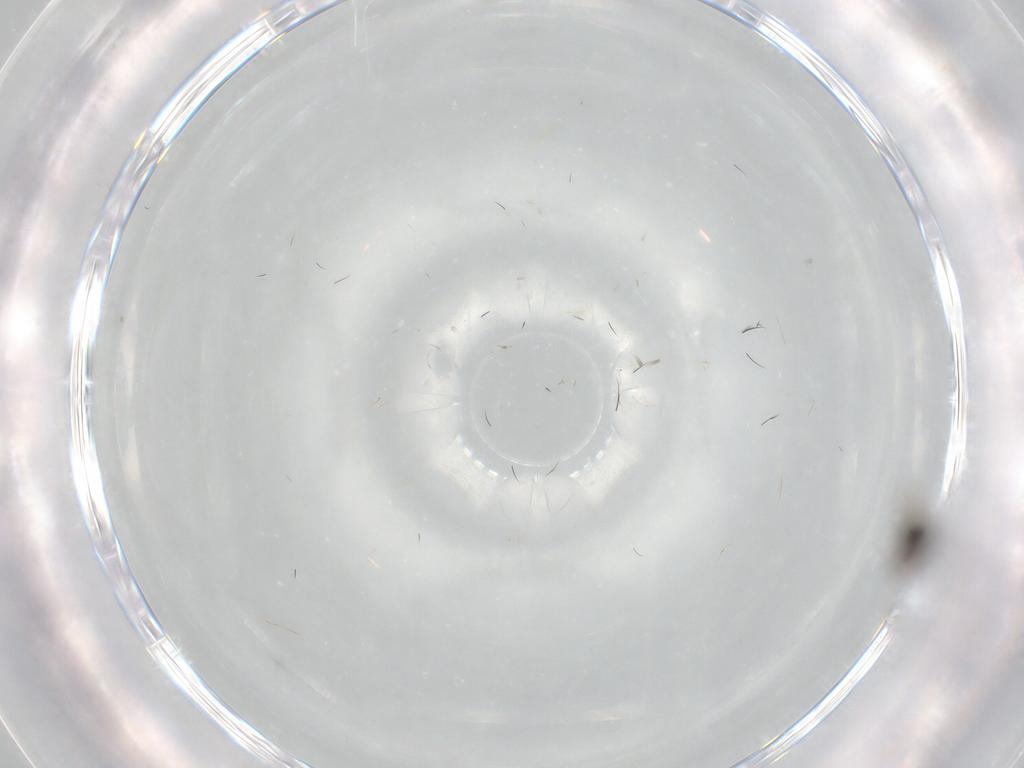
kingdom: Animalia
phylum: Arthropoda
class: Insecta
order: Diptera
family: Cecidomyiidae
